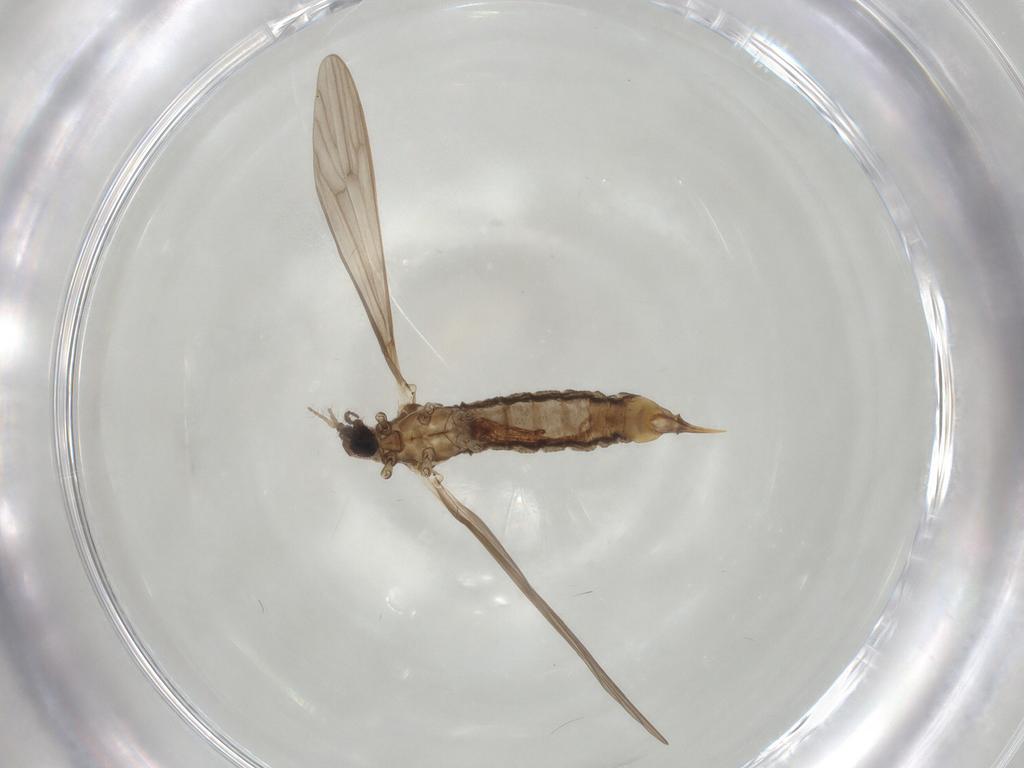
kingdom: Animalia
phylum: Arthropoda
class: Insecta
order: Diptera
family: Limoniidae
